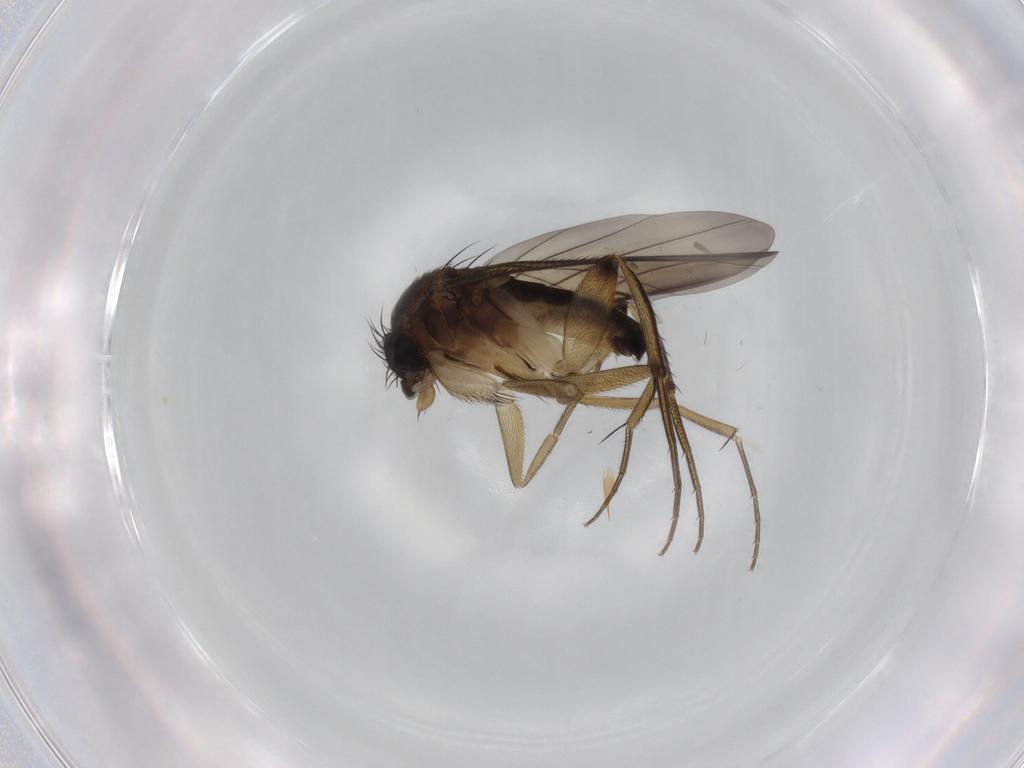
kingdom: Animalia
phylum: Arthropoda
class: Insecta
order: Diptera
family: Phoridae
